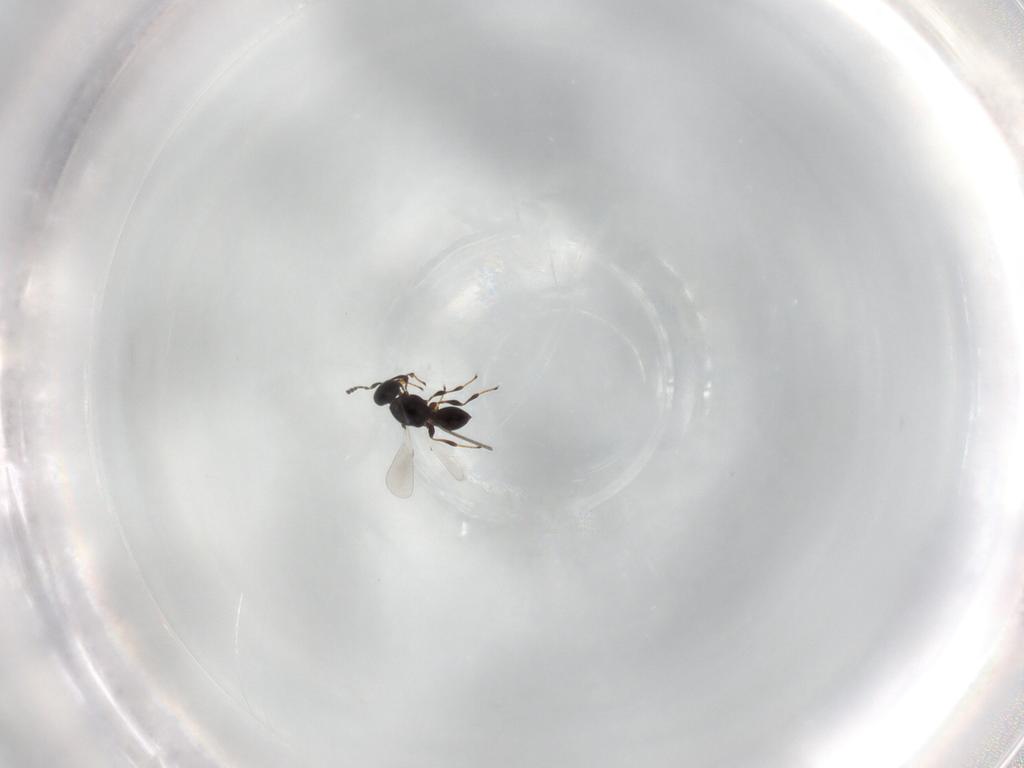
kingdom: Animalia
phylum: Arthropoda
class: Insecta
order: Hymenoptera
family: Platygastridae
